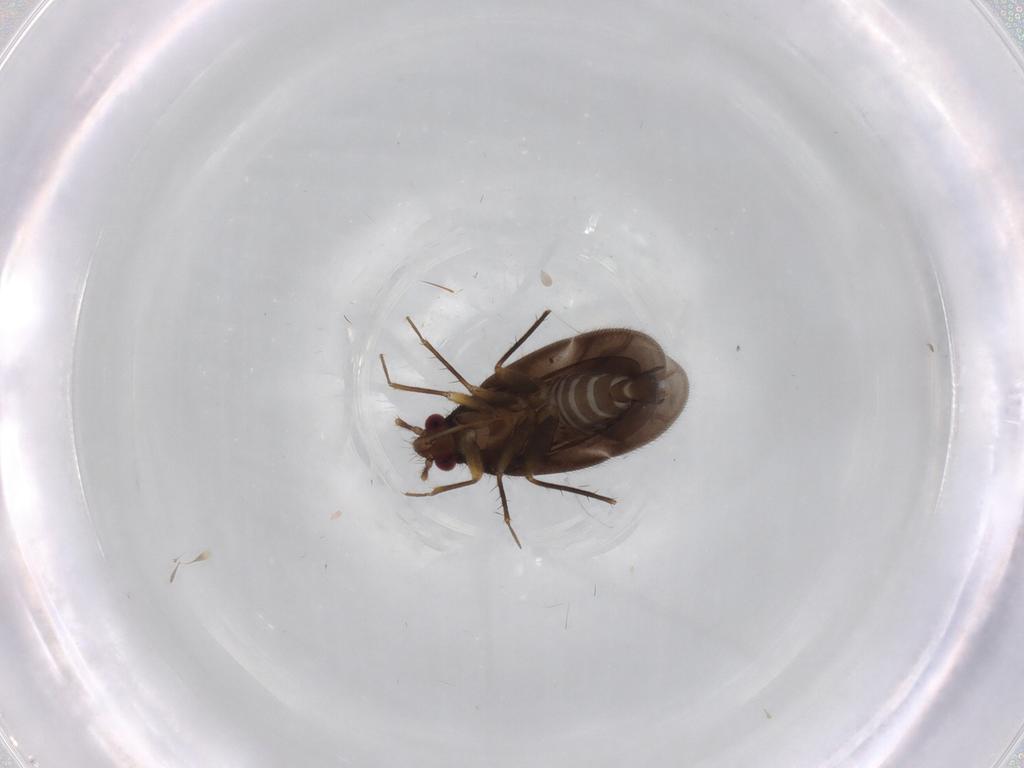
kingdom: Animalia
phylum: Arthropoda
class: Insecta
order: Hemiptera
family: Ceratocombidae
